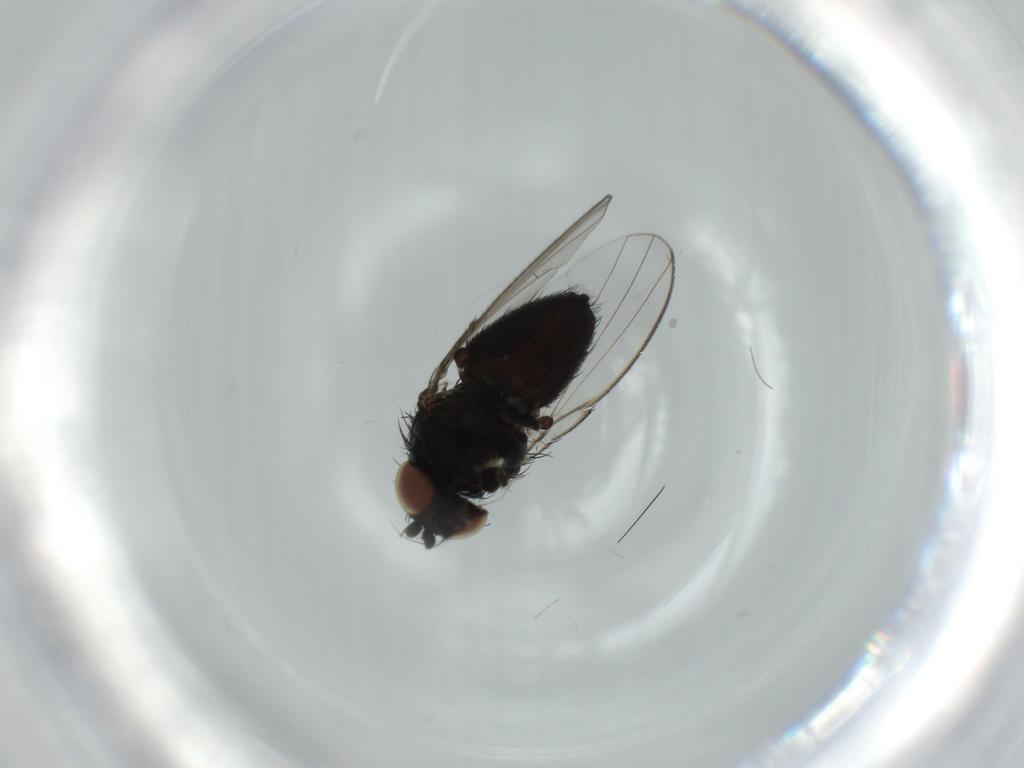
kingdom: Animalia
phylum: Arthropoda
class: Insecta
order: Diptera
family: Milichiidae
